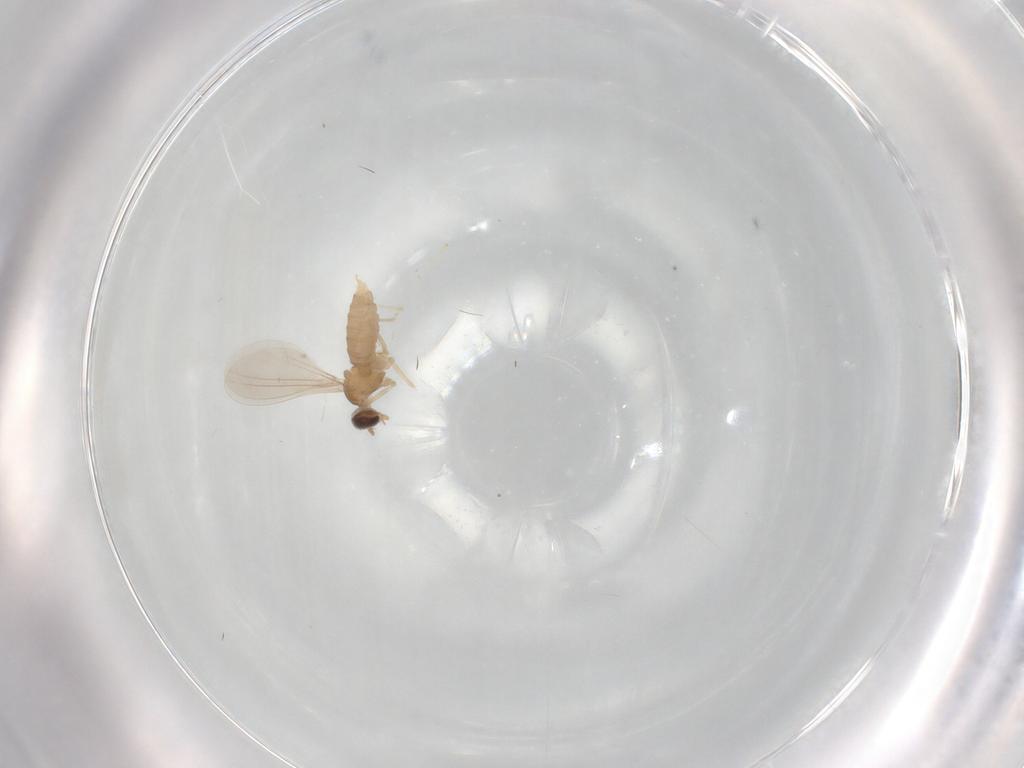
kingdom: Animalia
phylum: Arthropoda
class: Insecta
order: Diptera
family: Cecidomyiidae
